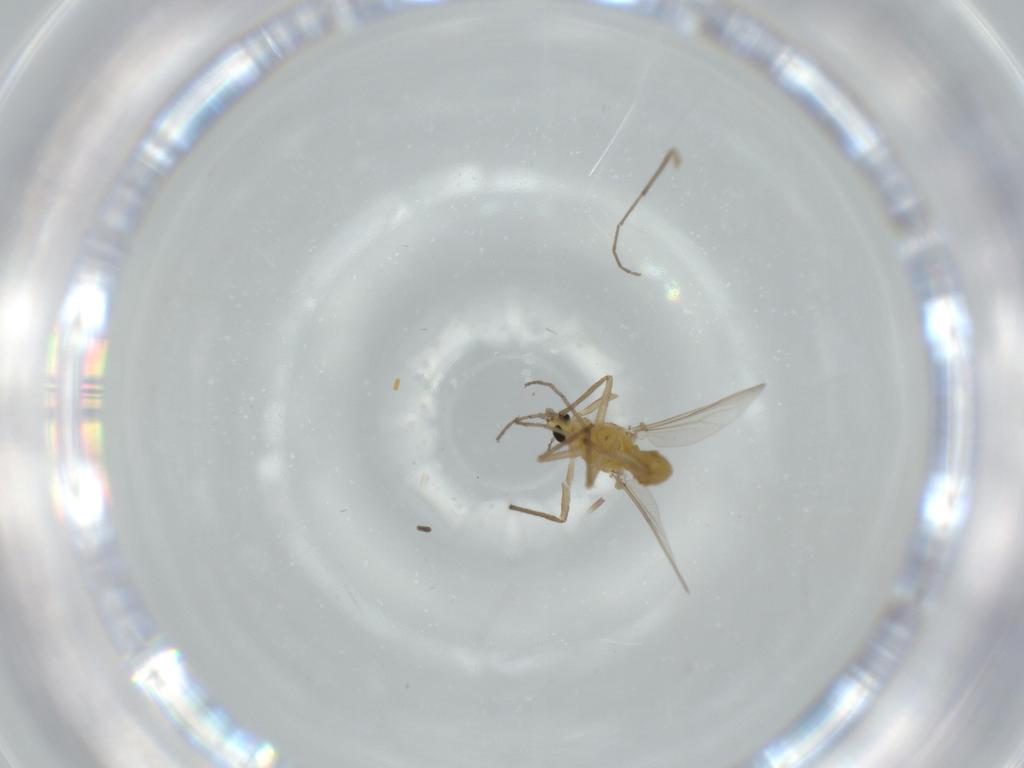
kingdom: Animalia
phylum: Arthropoda
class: Insecta
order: Diptera
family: Chironomidae
